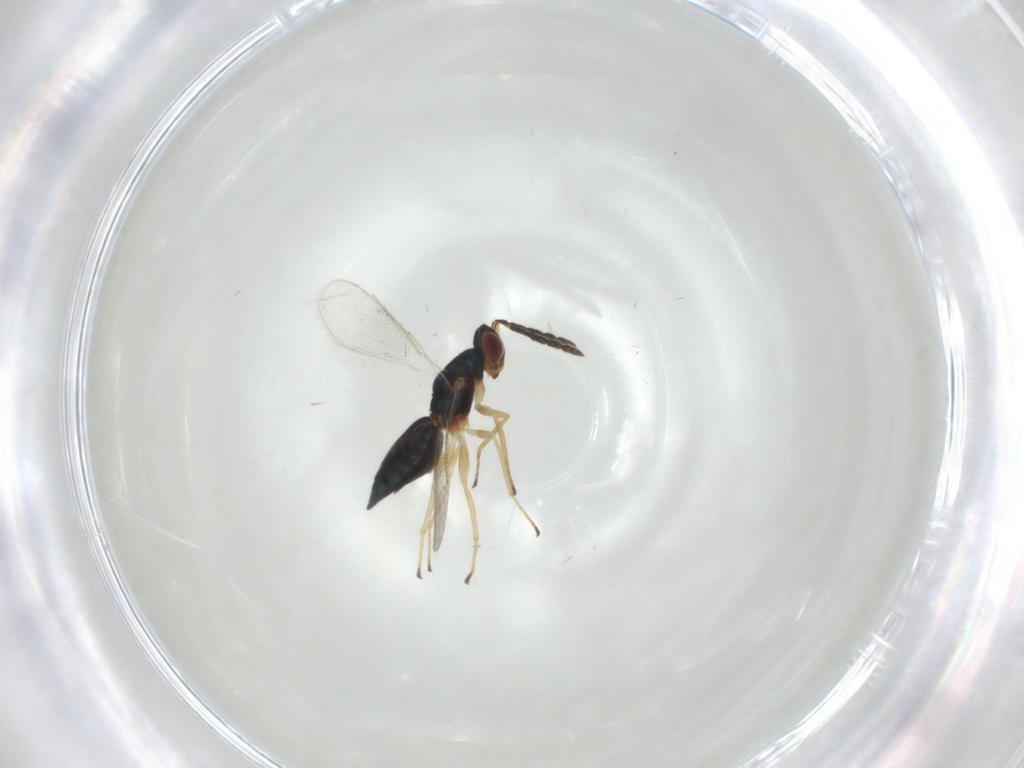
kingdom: Animalia
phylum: Arthropoda
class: Insecta
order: Hymenoptera
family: Eulophidae
